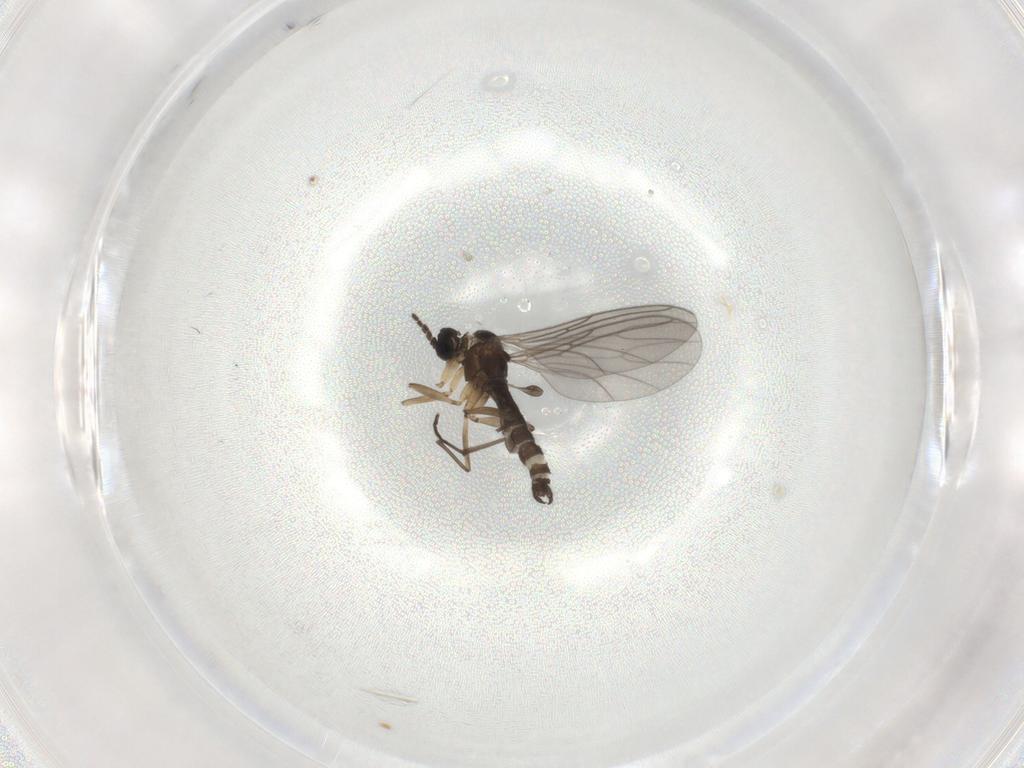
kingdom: Animalia
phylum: Arthropoda
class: Insecta
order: Diptera
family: Sciaridae
